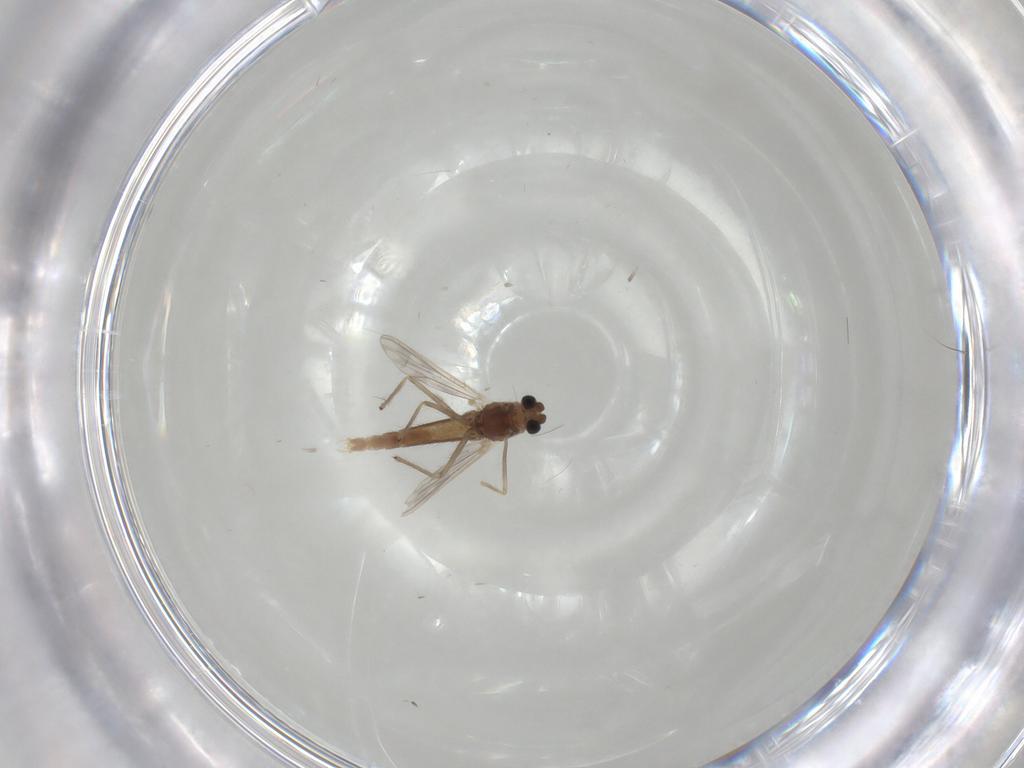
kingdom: Animalia
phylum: Arthropoda
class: Insecta
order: Diptera
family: Chironomidae
